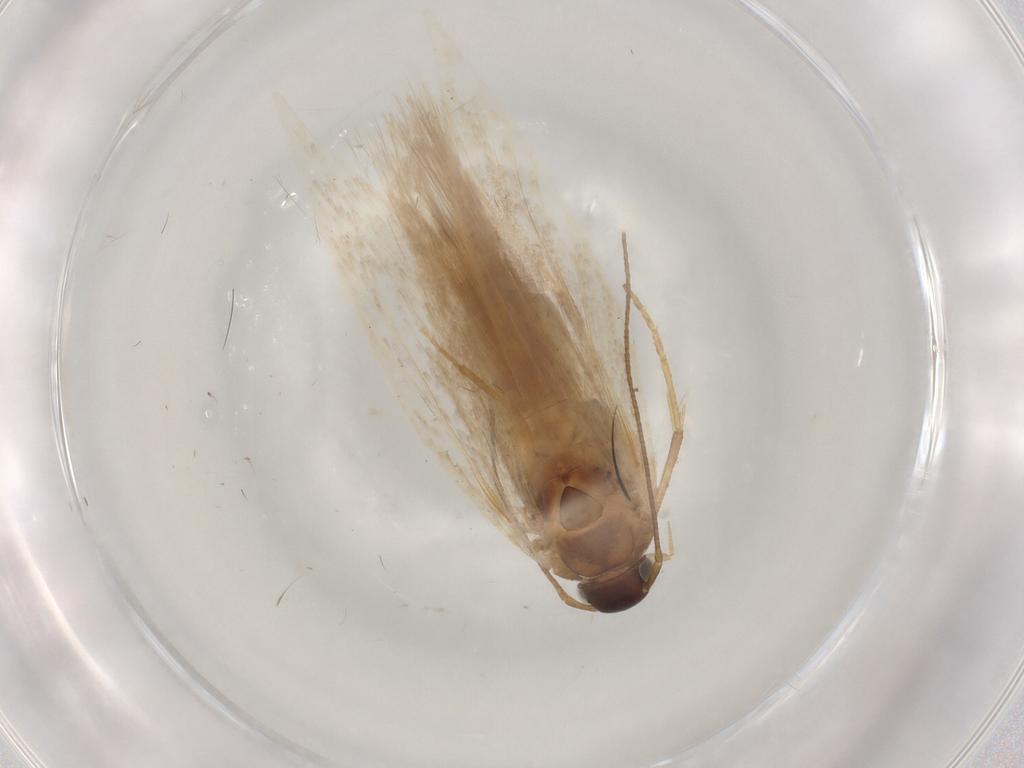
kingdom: Animalia
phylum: Arthropoda
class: Insecta
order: Lepidoptera
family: Gelechiidae
